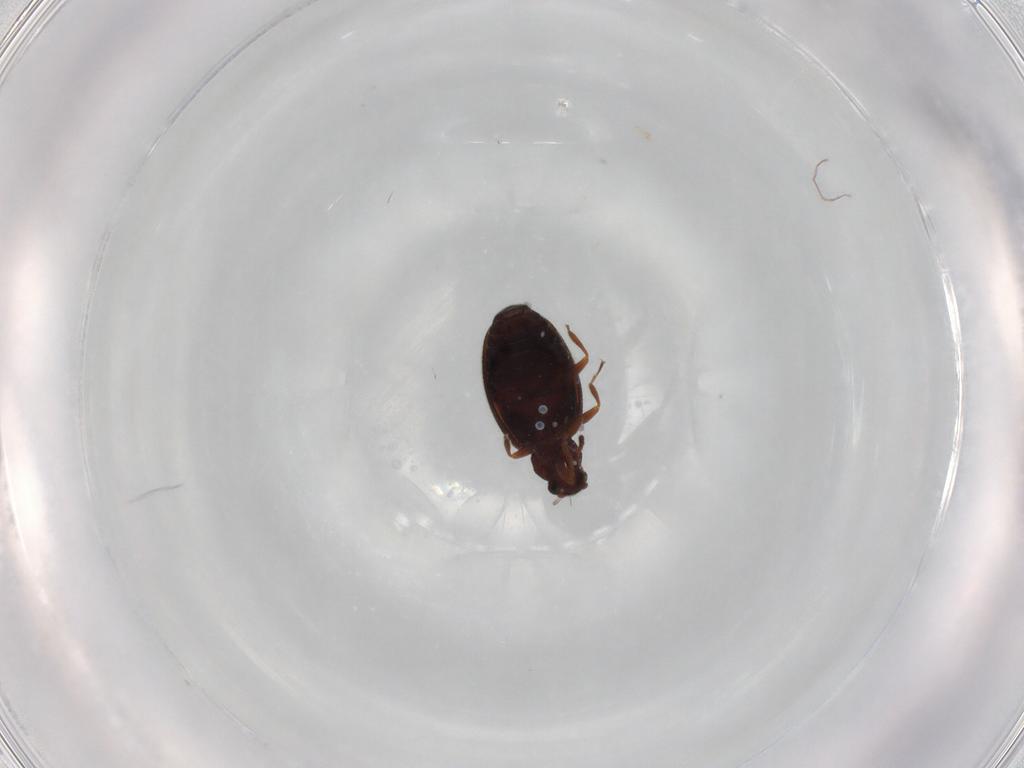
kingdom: Animalia
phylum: Arthropoda
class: Insecta
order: Coleoptera
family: Latridiidae
